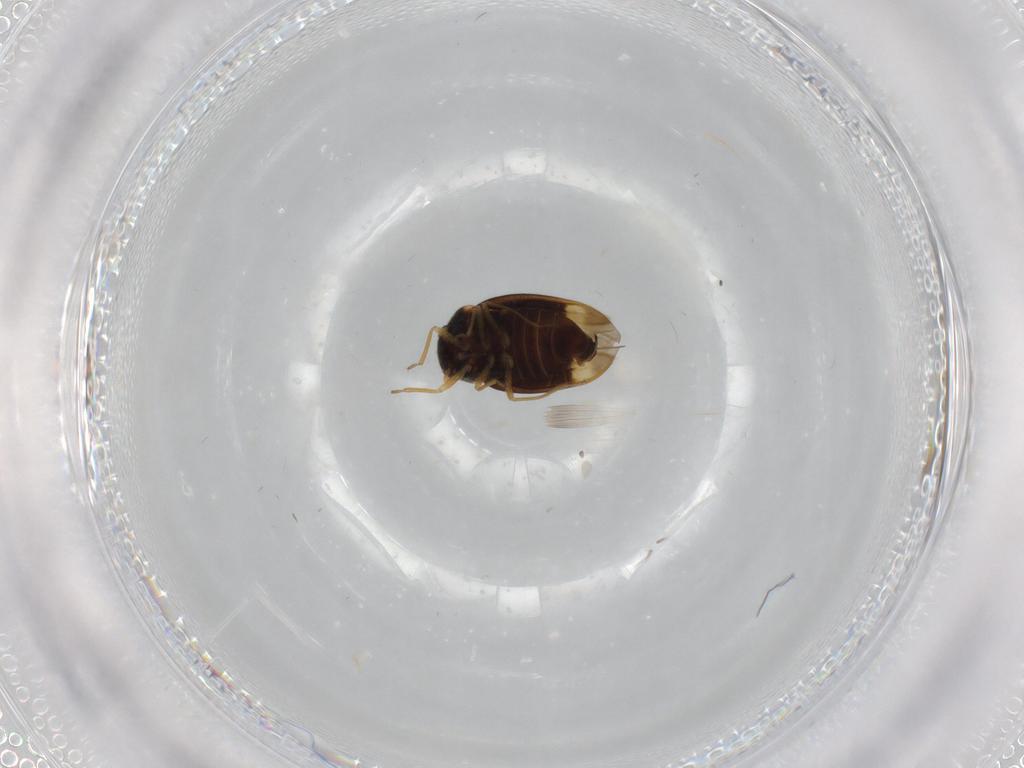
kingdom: Animalia
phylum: Arthropoda
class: Insecta
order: Hemiptera
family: Schizopteridae
